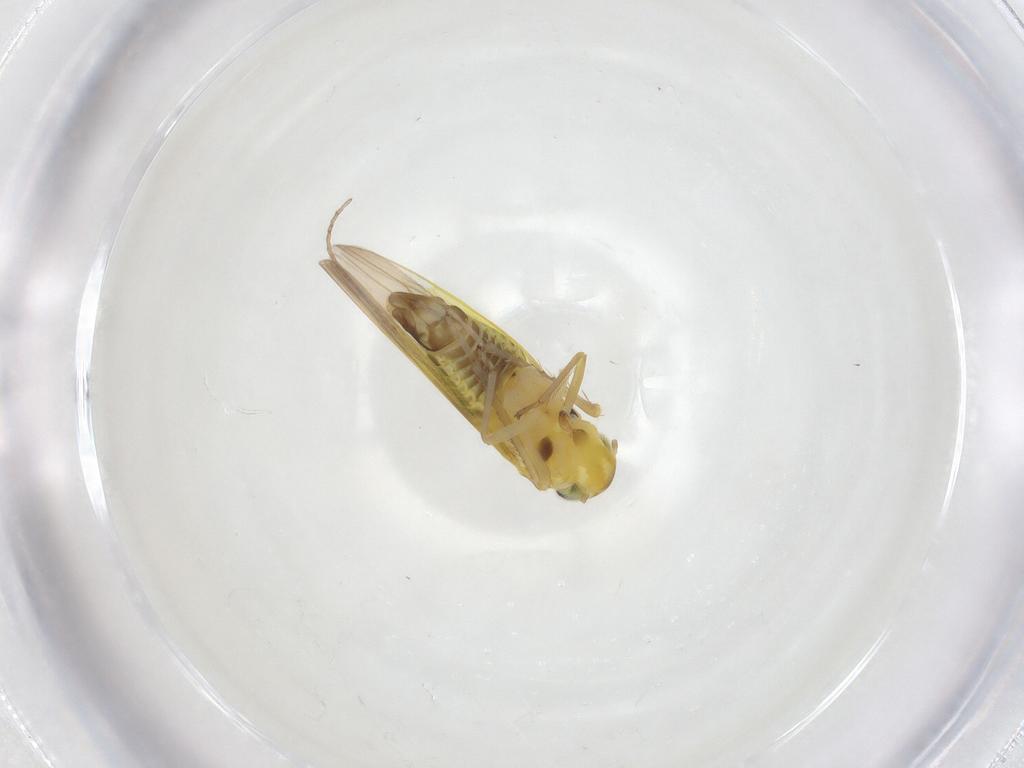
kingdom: Animalia
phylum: Arthropoda
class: Insecta
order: Hemiptera
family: Cicadellidae
